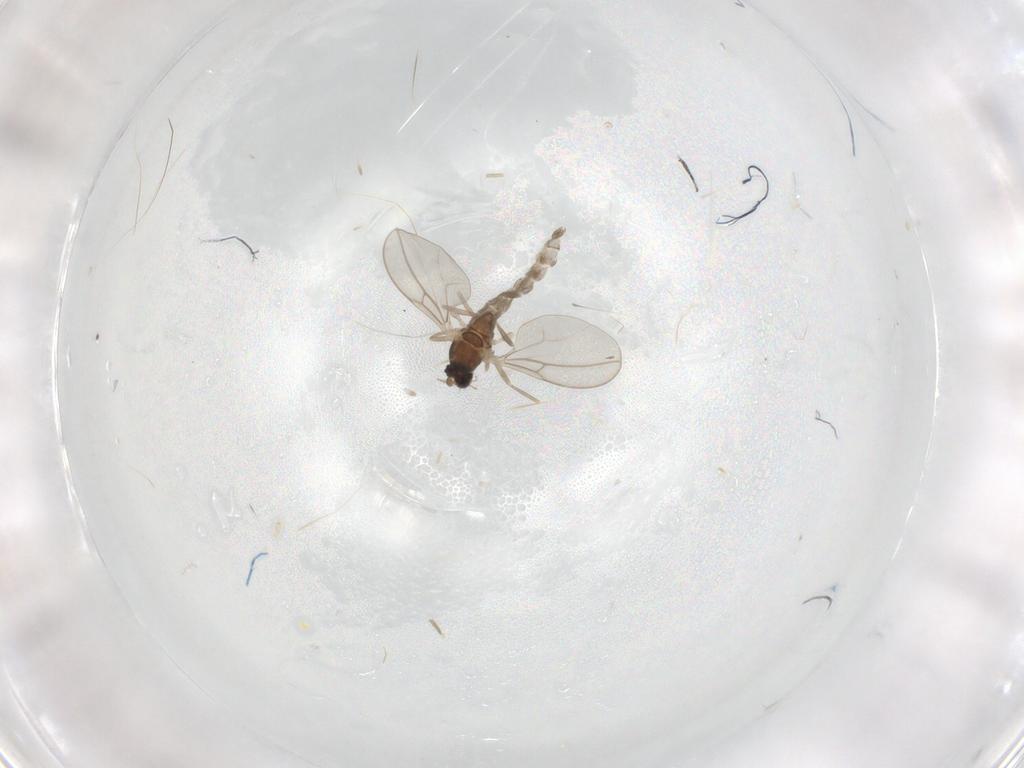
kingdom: Animalia
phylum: Arthropoda
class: Insecta
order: Diptera
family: Cecidomyiidae
